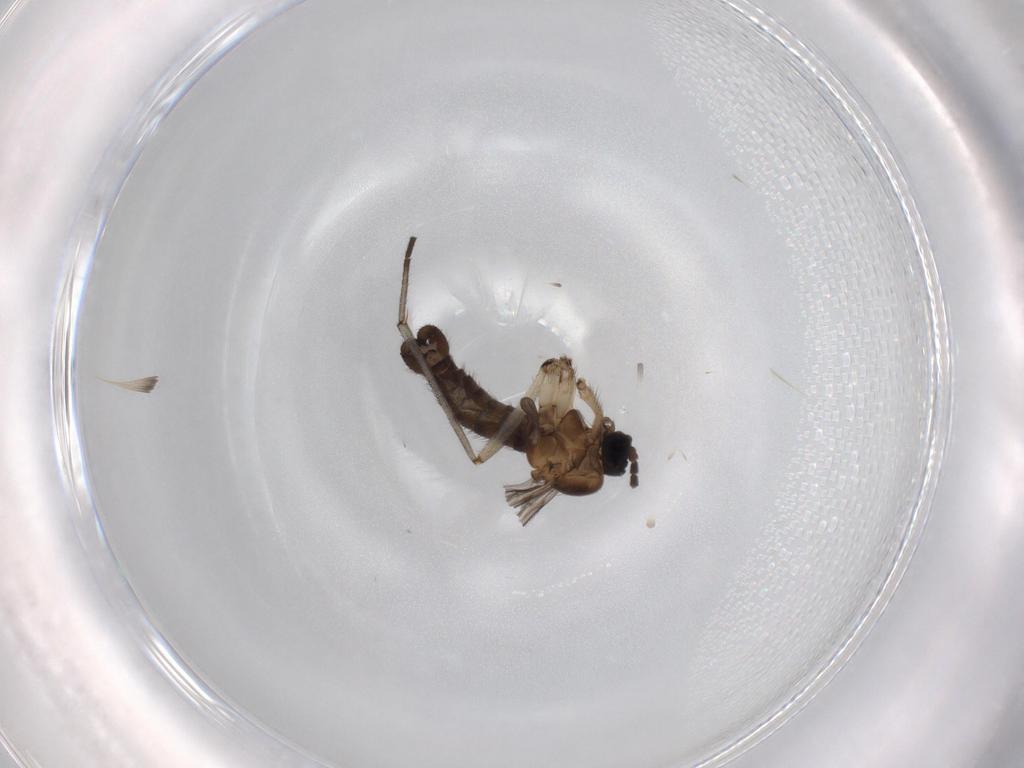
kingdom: Animalia
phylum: Arthropoda
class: Insecta
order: Diptera
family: Sciaridae
